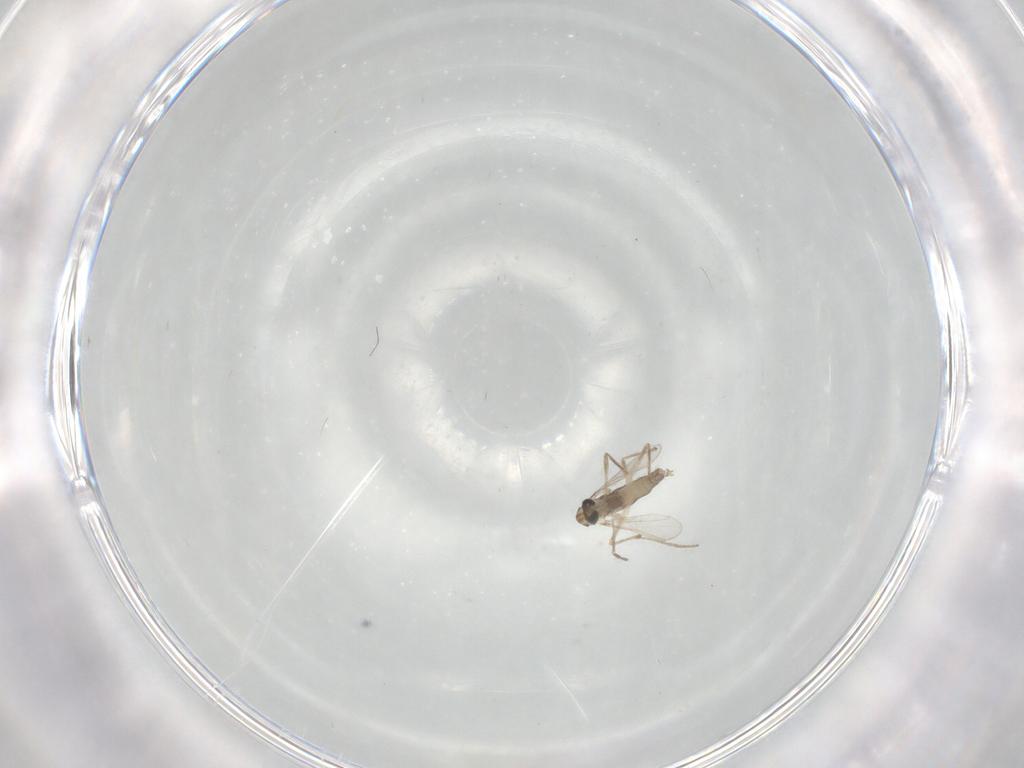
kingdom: Animalia
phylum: Arthropoda
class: Insecta
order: Diptera
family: Chironomidae
